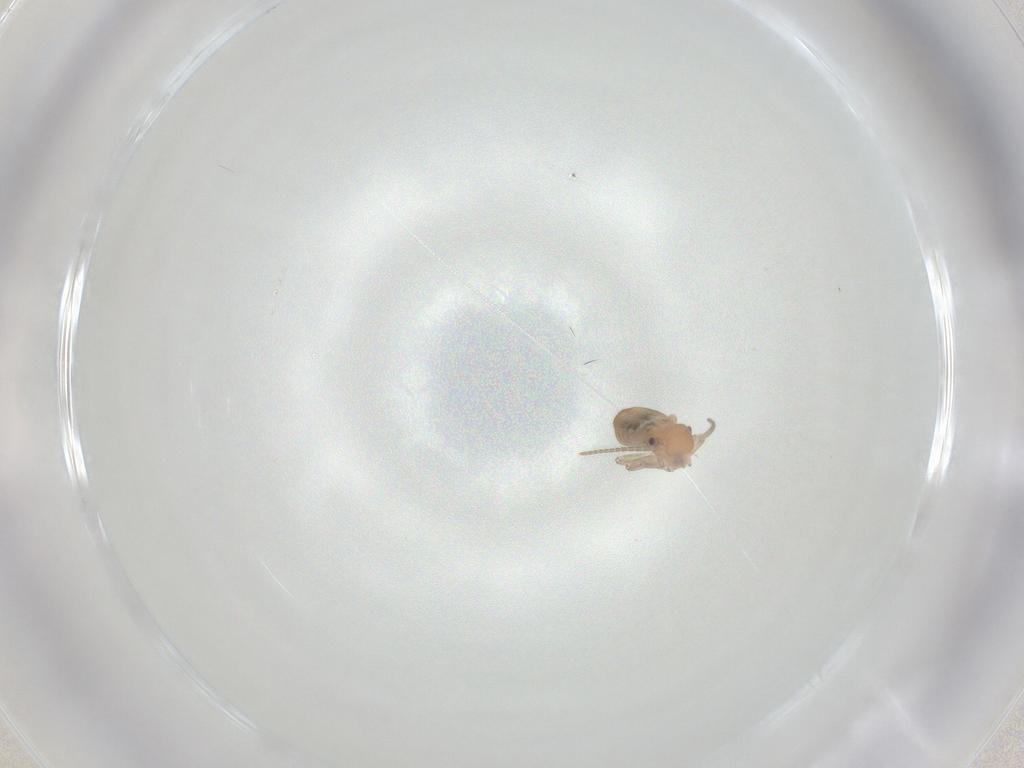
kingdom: Animalia
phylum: Arthropoda
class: Insecta
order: Psocodea
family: Caeciliusidae
